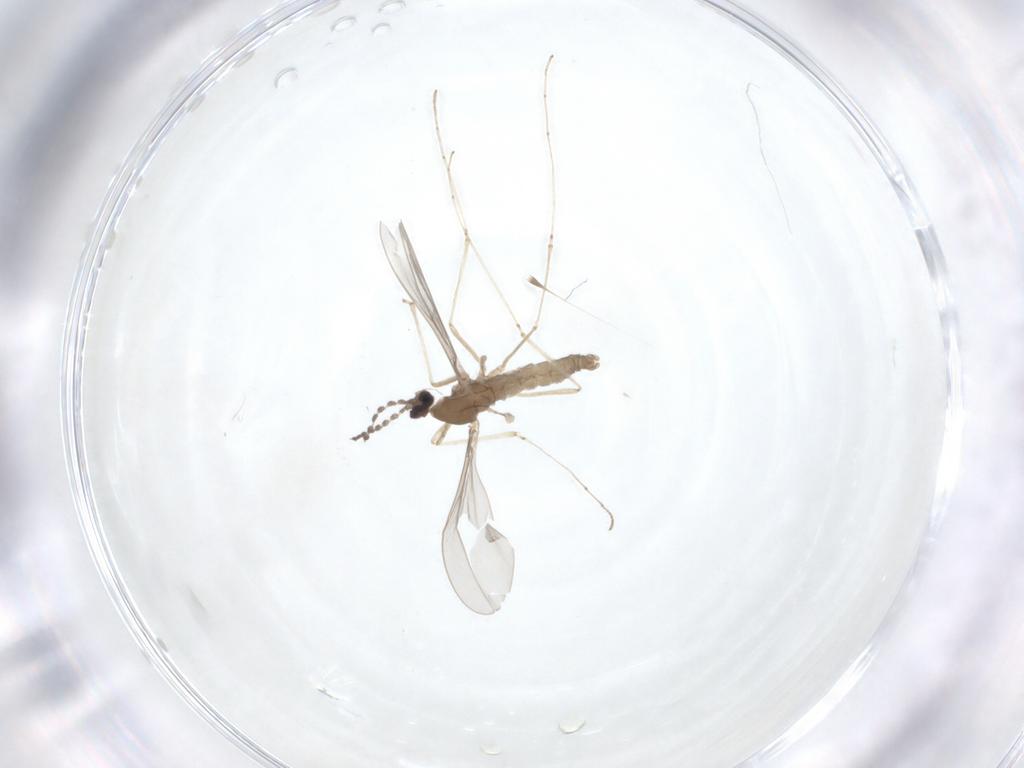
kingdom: Animalia
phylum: Arthropoda
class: Insecta
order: Diptera
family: Cecidomyiidae
